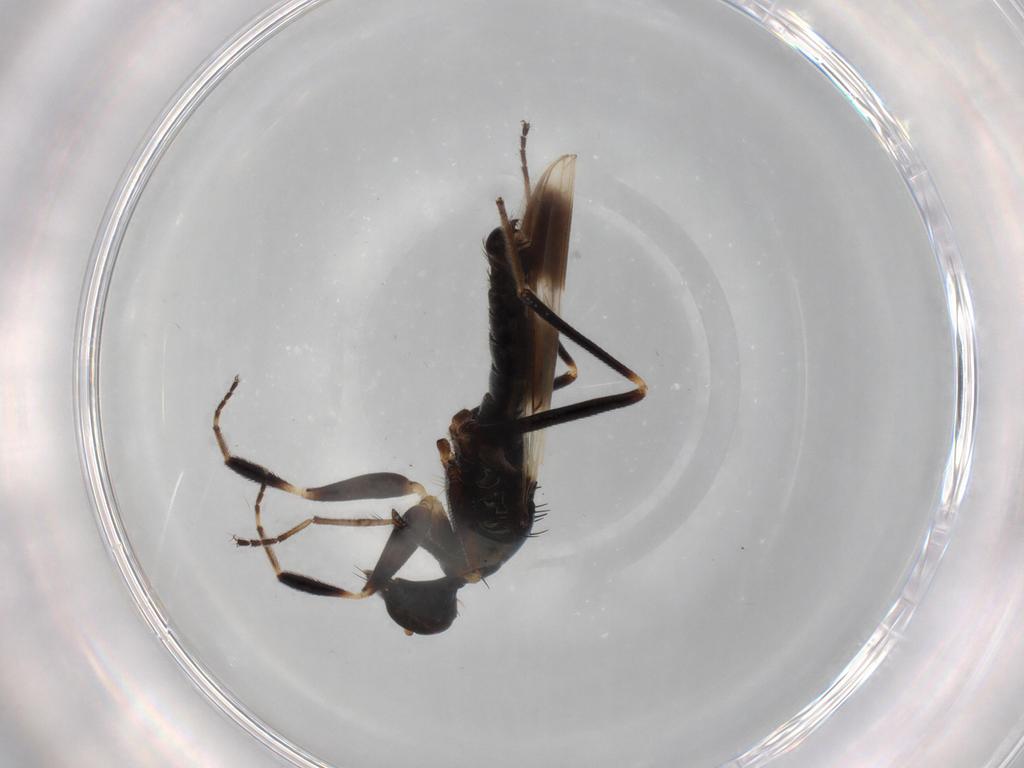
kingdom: Animalia
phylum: Arthropoda
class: Insecta
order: Diptera
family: Hybotidae
